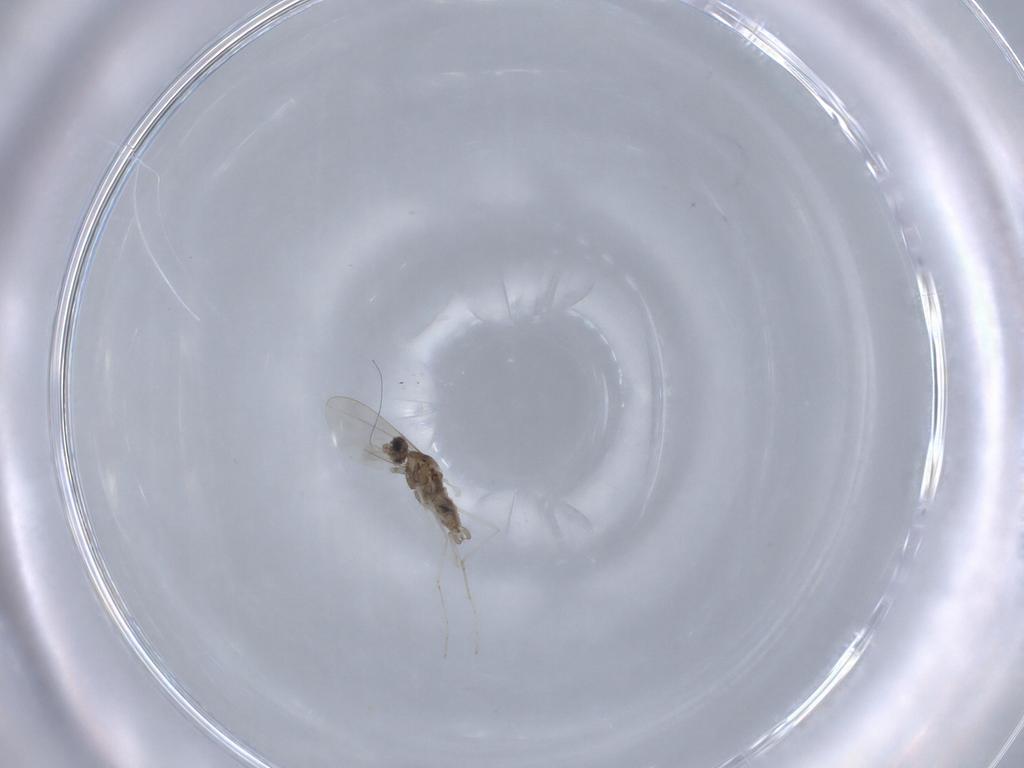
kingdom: Animalia
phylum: Arthropoda
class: Insecta
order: Diptera
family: Cecidomyiidae
